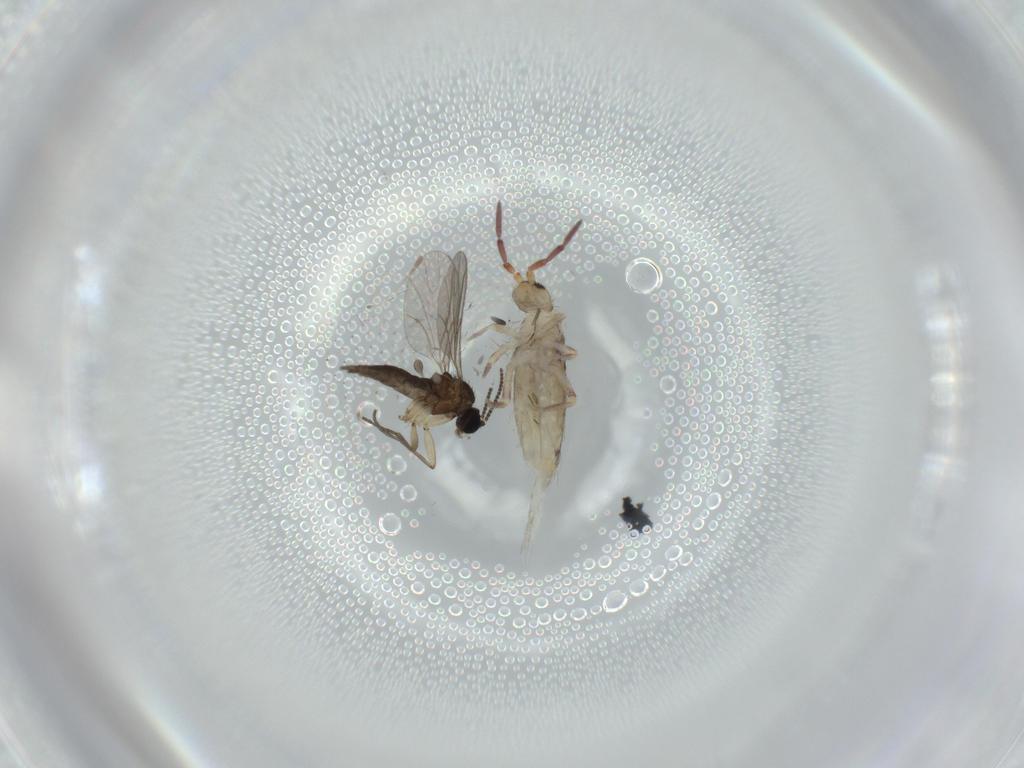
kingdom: Animalia
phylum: Arthropoda
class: Insecta
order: Diptera
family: Sciaridae
